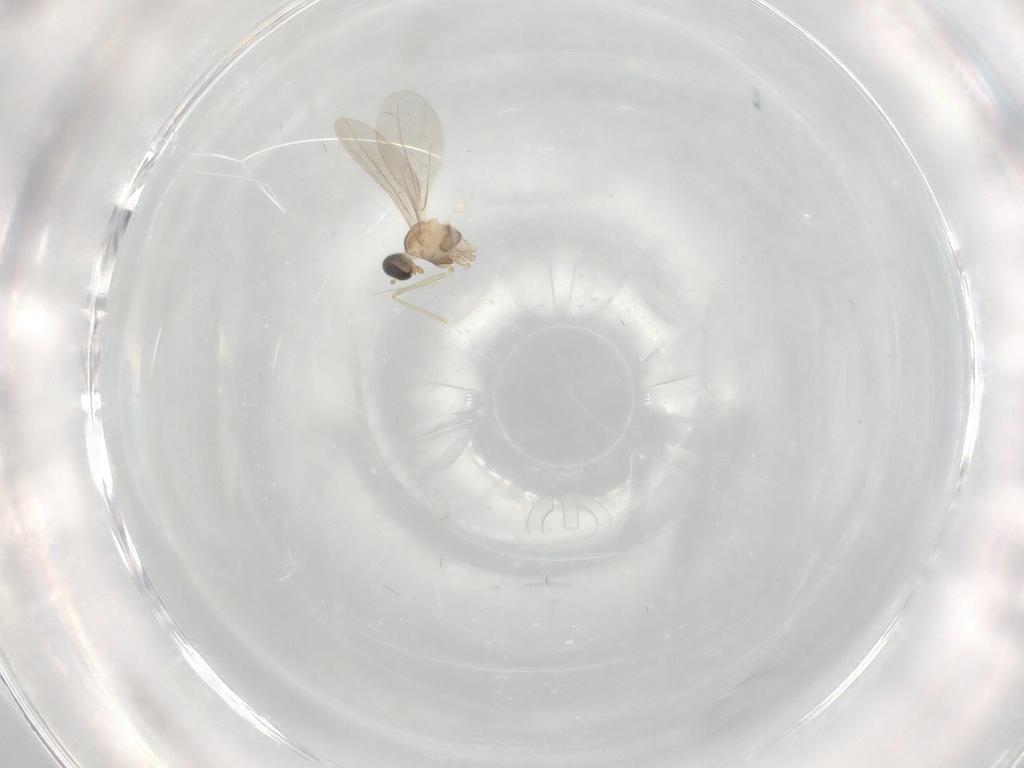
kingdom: Animalia
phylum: Arthropoda
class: Insecta
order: Diptera
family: Cecidomyiidae
